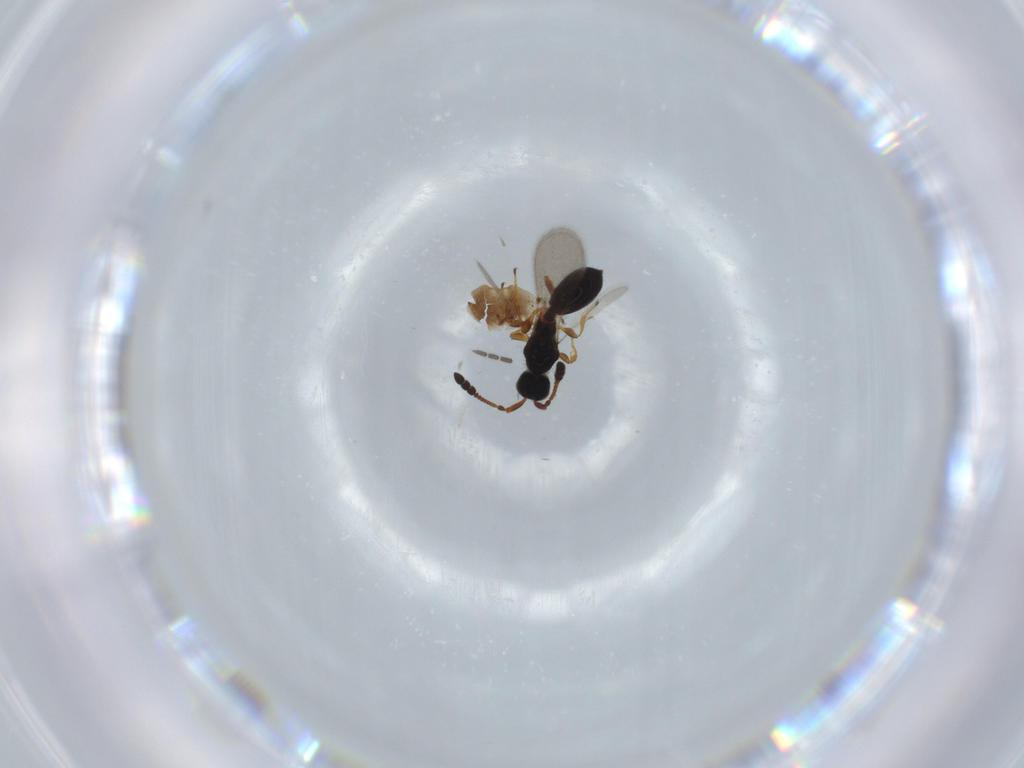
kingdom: Animalia
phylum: Arthropoda
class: Insecta
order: Hymenoptera
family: Diapriidae
